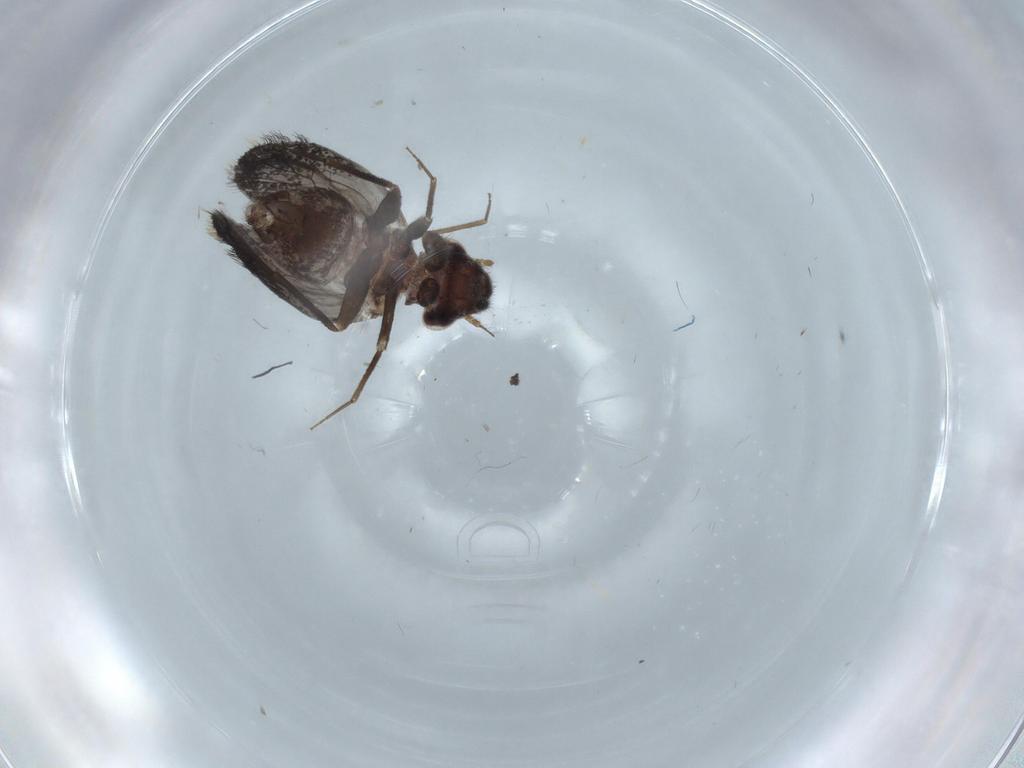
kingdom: Animalia
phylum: Arthropoda
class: Insecta
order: Psocodea
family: Lepidopsocidae
